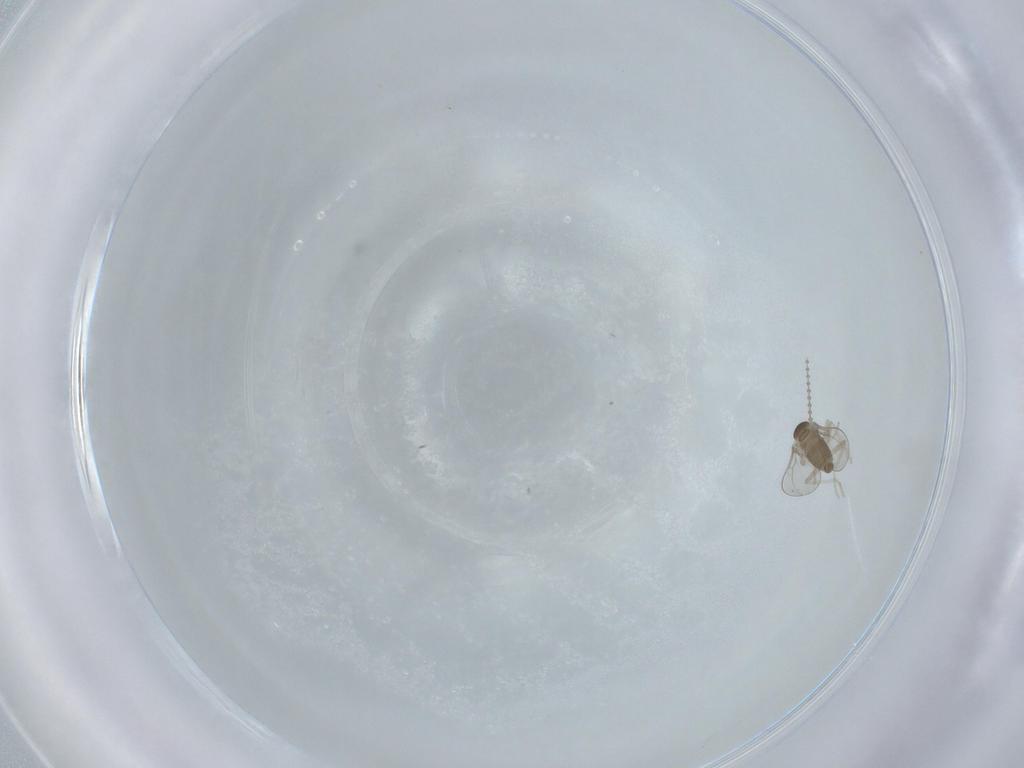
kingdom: Animalia
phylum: Arthropoda
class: Insecta
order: Diptera
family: Cecidomyiidae
